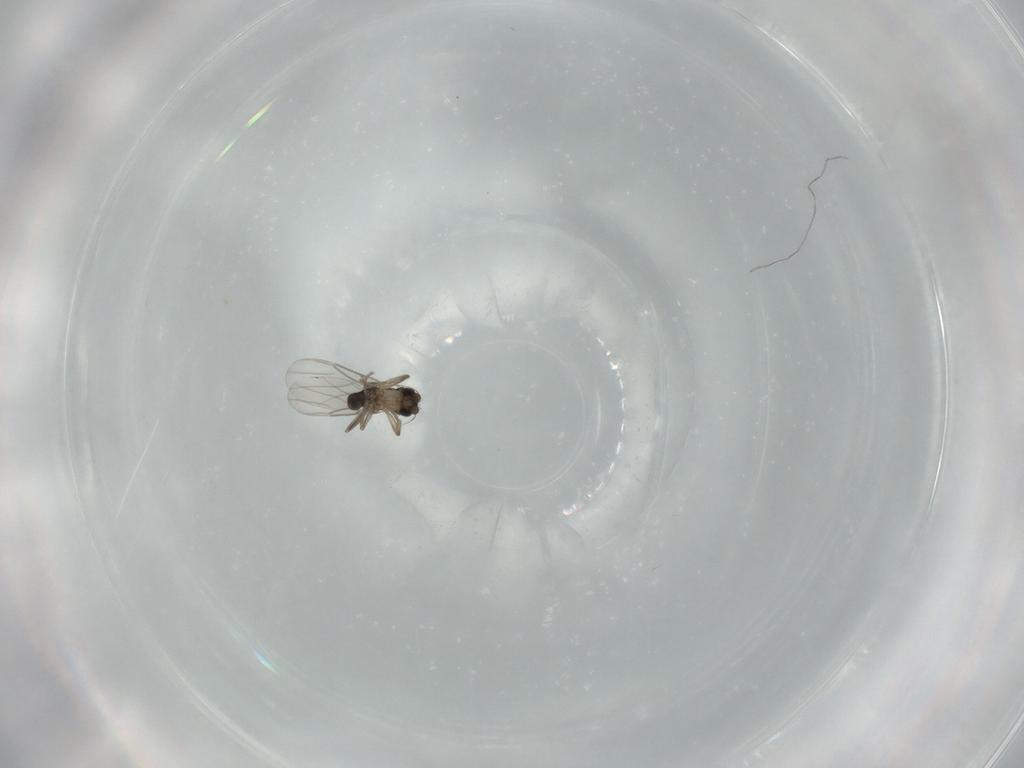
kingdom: Animalia
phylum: Arthropoda
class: Insecta
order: Diptera
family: Phoridae
